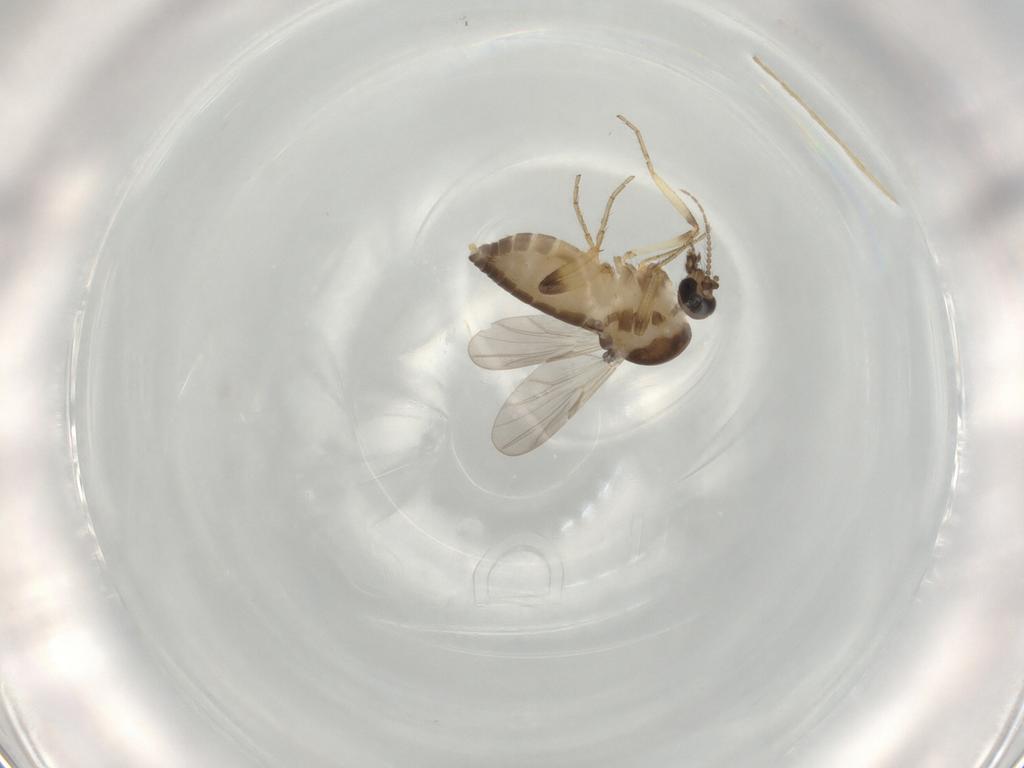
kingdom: Animalia
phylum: Arthropoda
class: Insecta
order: Diptera
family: Ceratopogonidae
